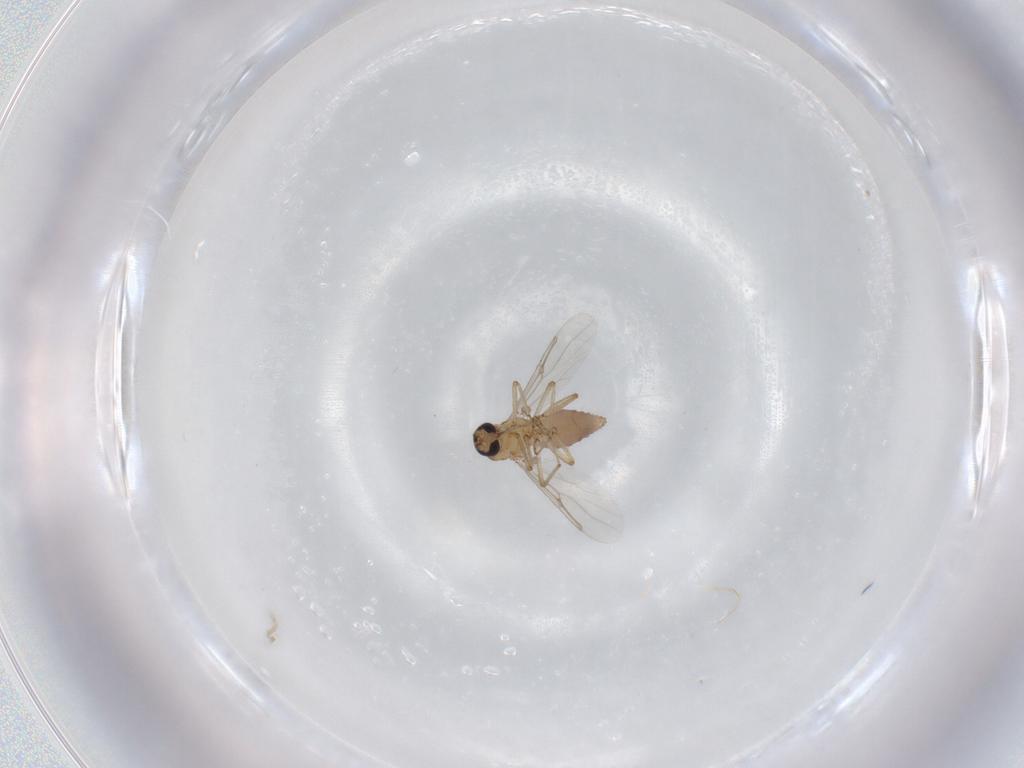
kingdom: Animalia
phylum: Arthropoda
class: Insecta
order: Diptera
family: Ceratopogonidae
